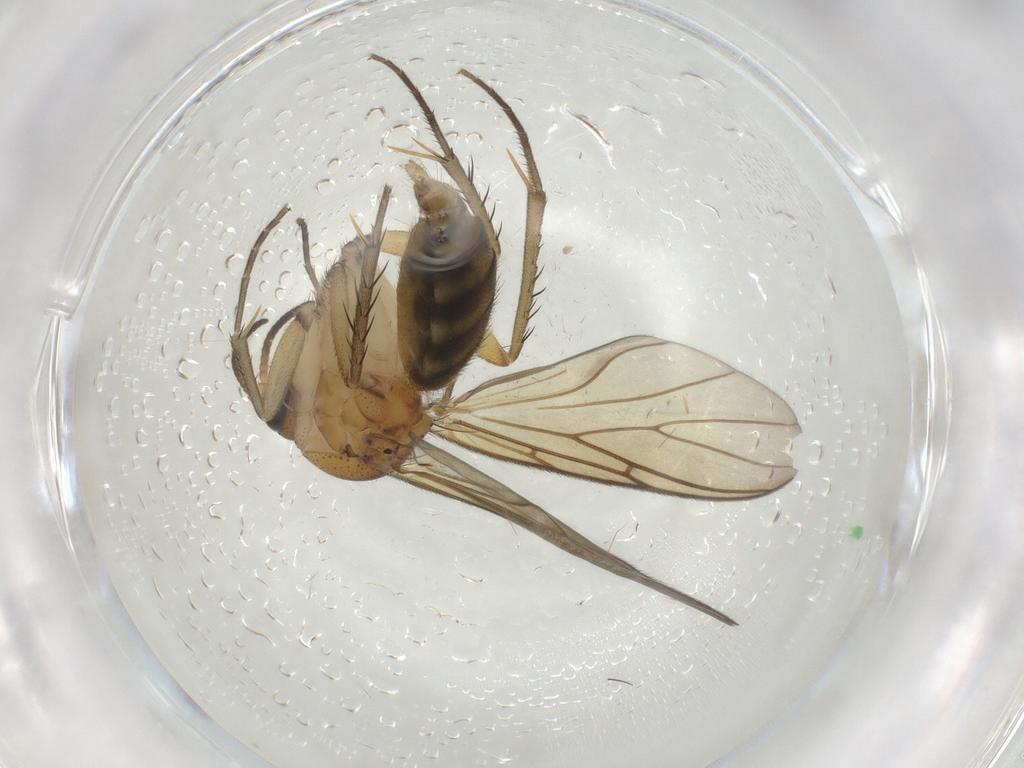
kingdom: Animalia
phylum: Arthropoda
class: Insecta
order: Diptera
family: Mycetophilidae
